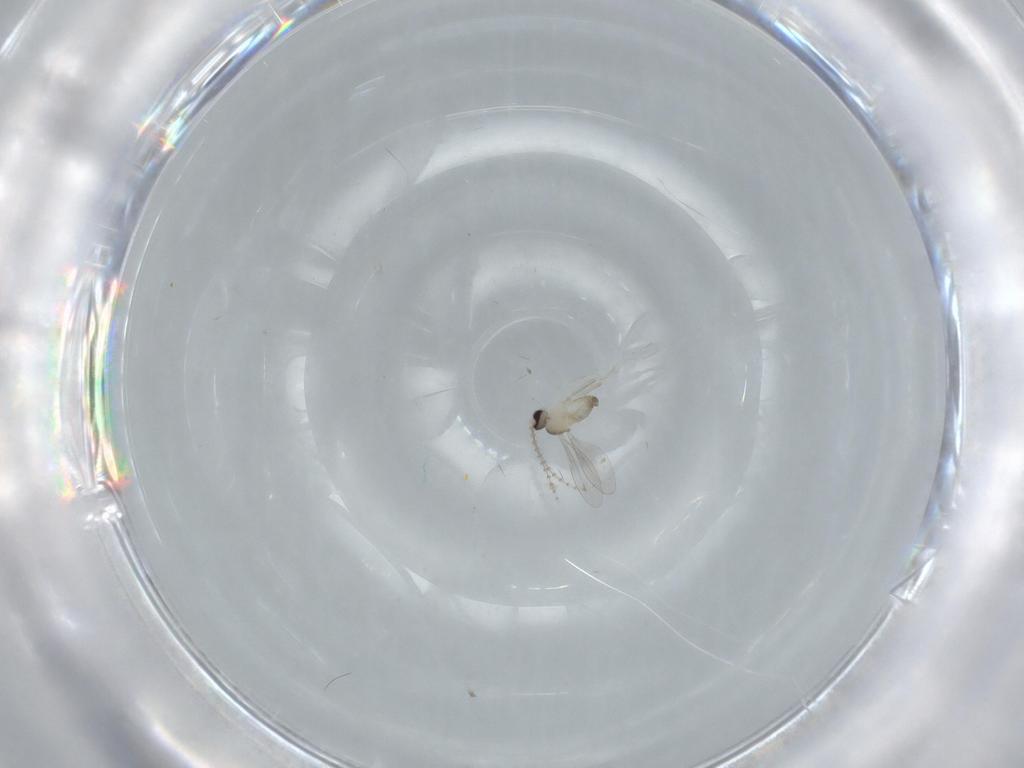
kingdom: Animalia
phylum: Arthropoda
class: Insecta
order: Diptera
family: Cecidomyiidae
